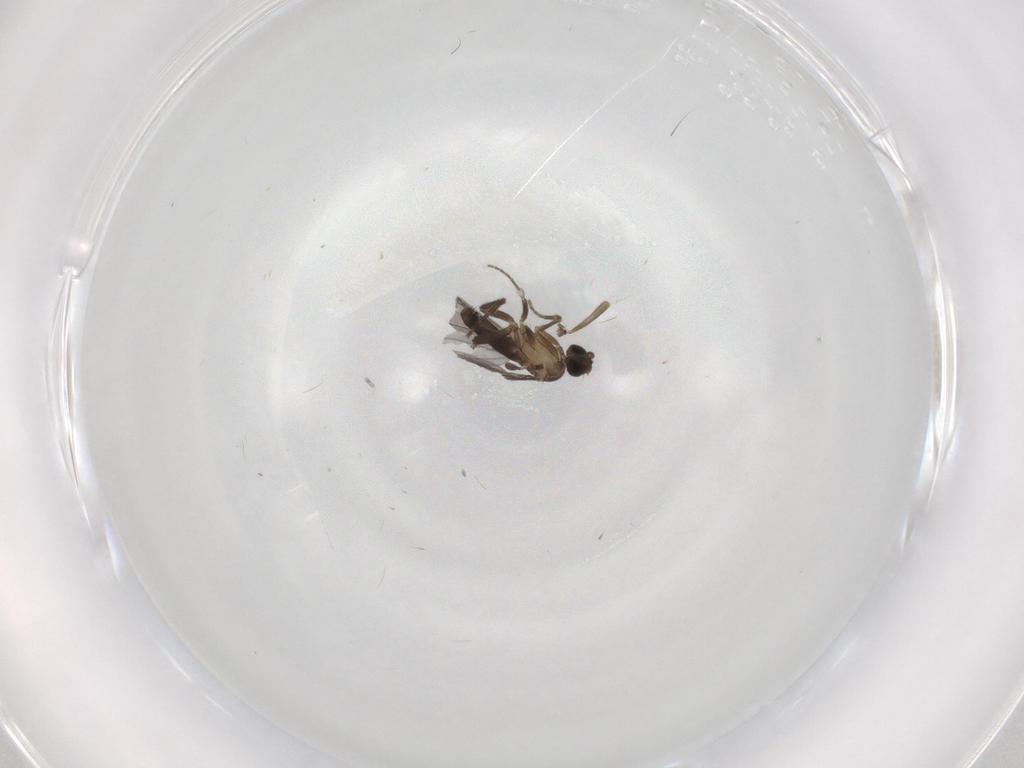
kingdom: Animalia
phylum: Arthropoda
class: Insecta
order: Diptera
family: Phoridae
